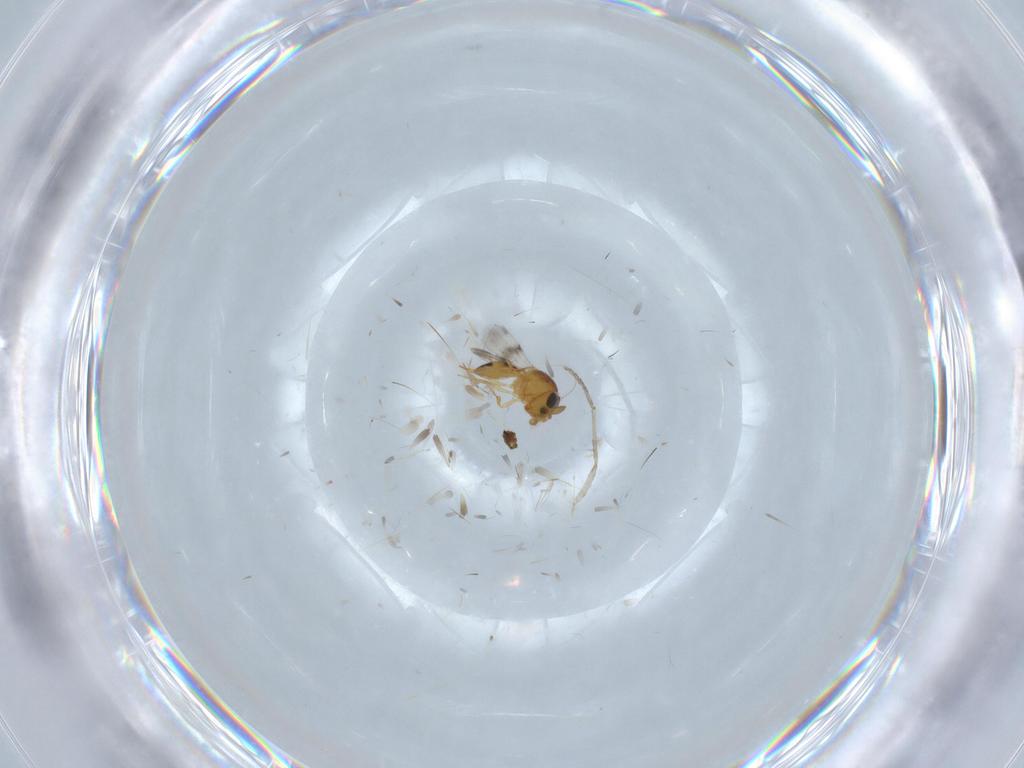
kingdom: Animalia
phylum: Arthropoda
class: Insecta
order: Hymenoptera
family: Scelionidae
